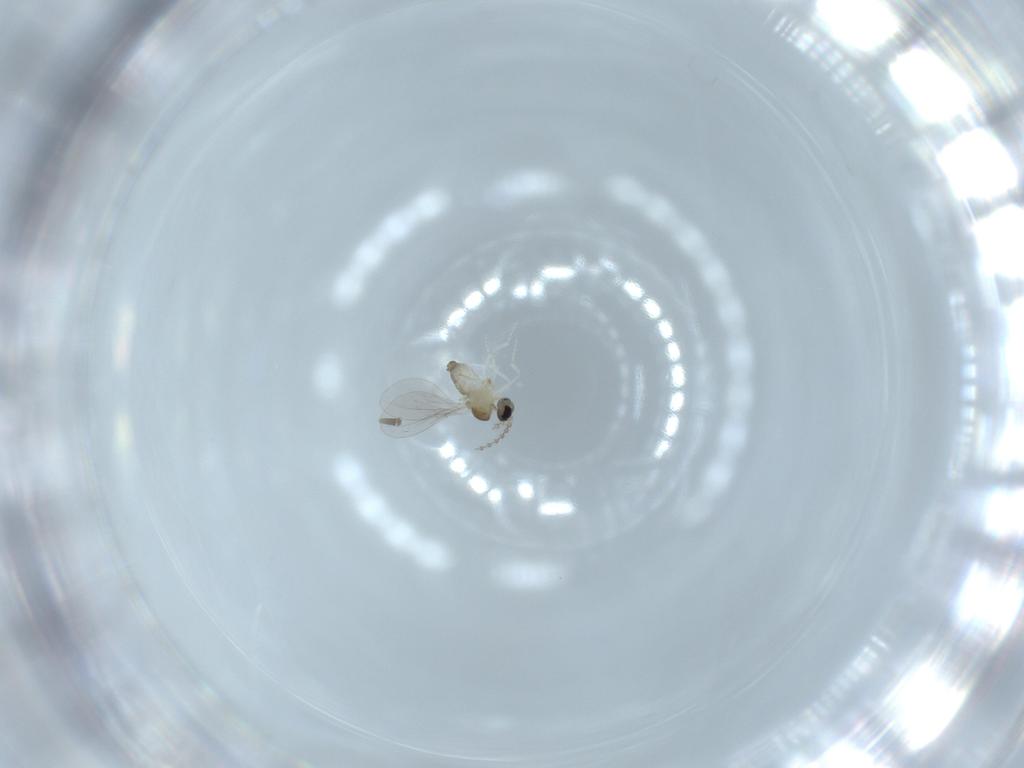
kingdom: Animalia
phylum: Arthropoda
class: Insecta
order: Diptera
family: Cecidomyiidae
